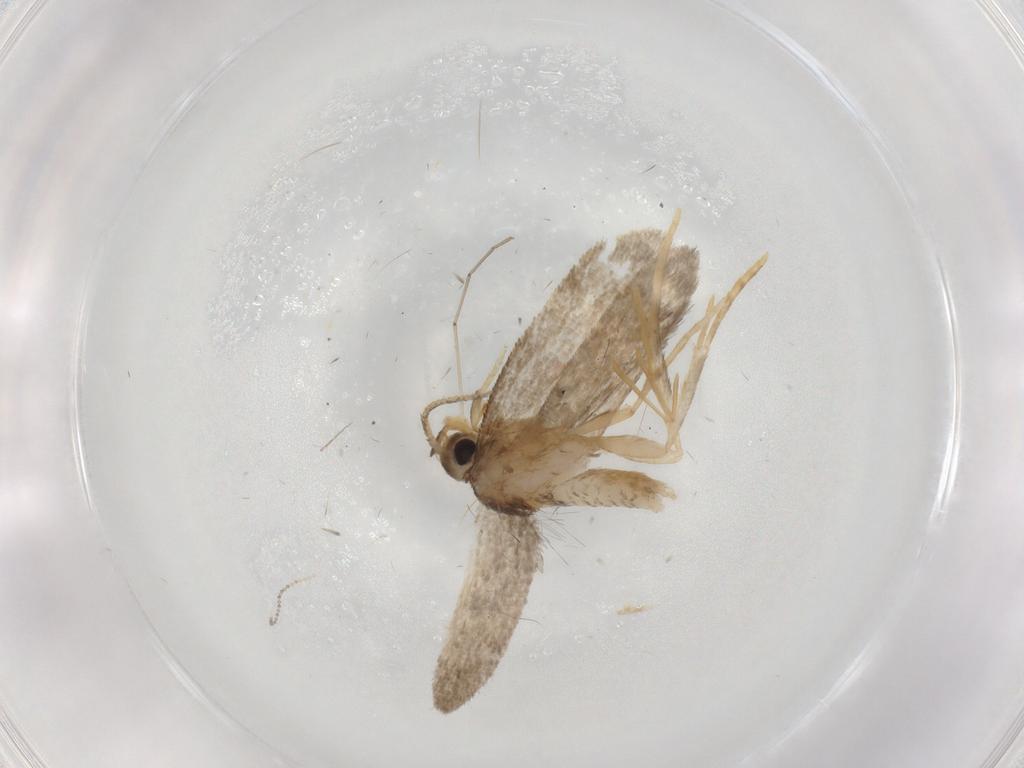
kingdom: Animalia
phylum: Arthropoda
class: Insecta
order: Lepidoptera
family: Psychidae
